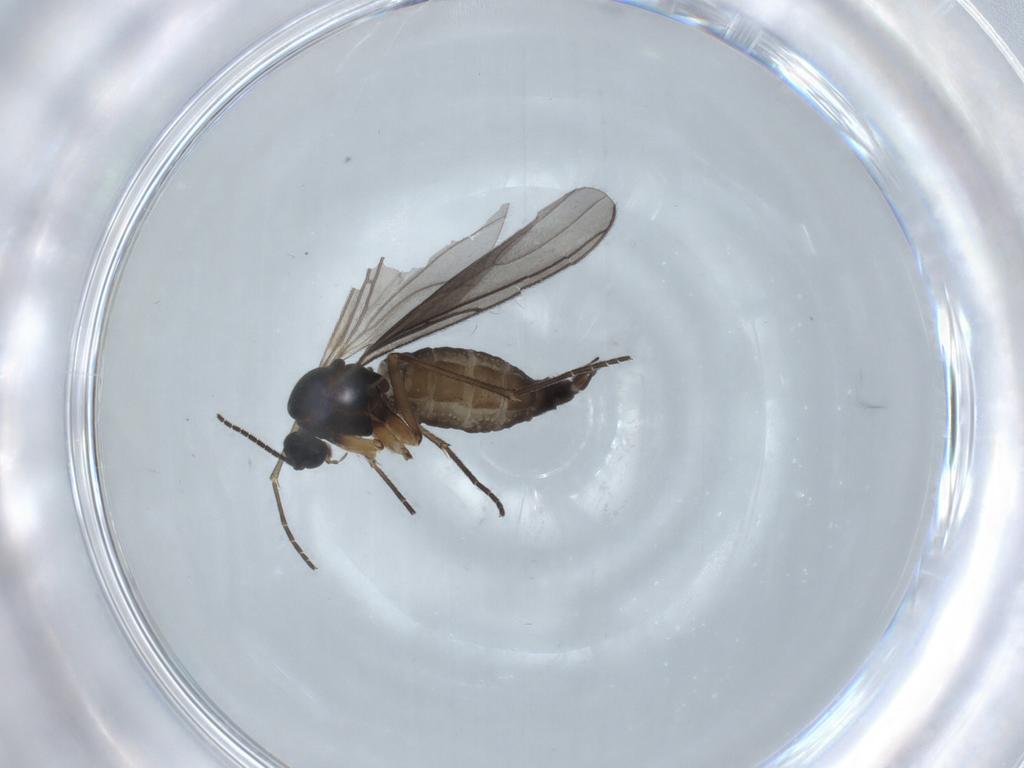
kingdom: Animalia
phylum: Arthropoda
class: Insecta
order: Diptera
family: Sciaridae
